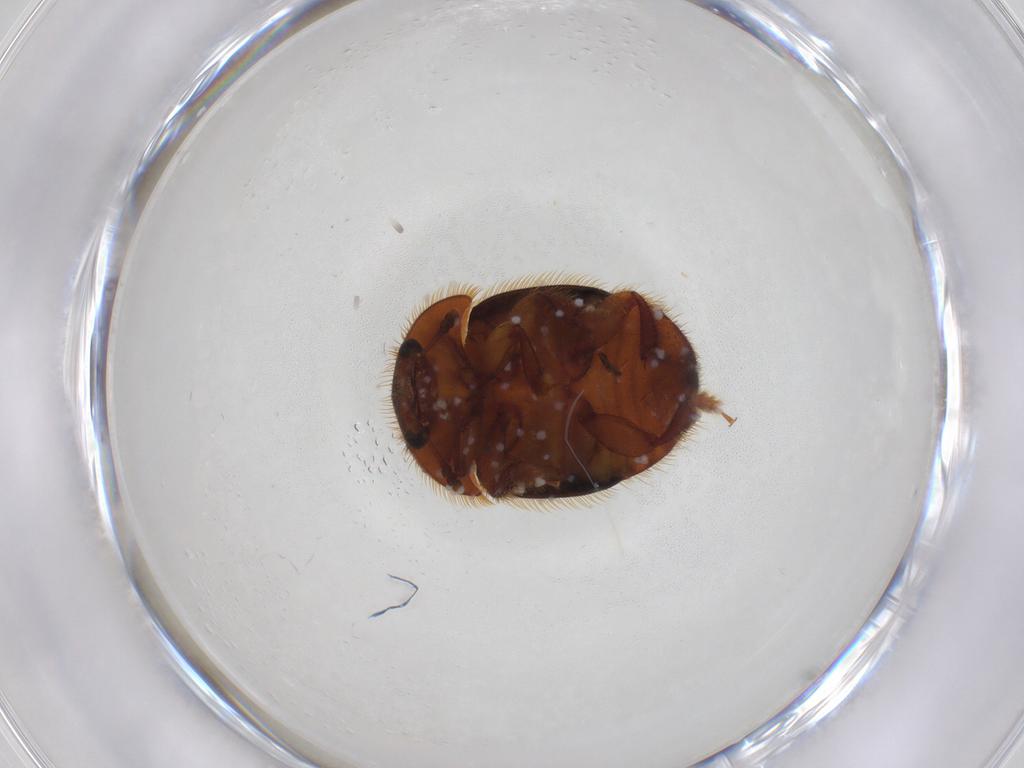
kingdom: Animalia
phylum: Arthropoda
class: Insecta
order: Coleoptera
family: Nitidulidae
